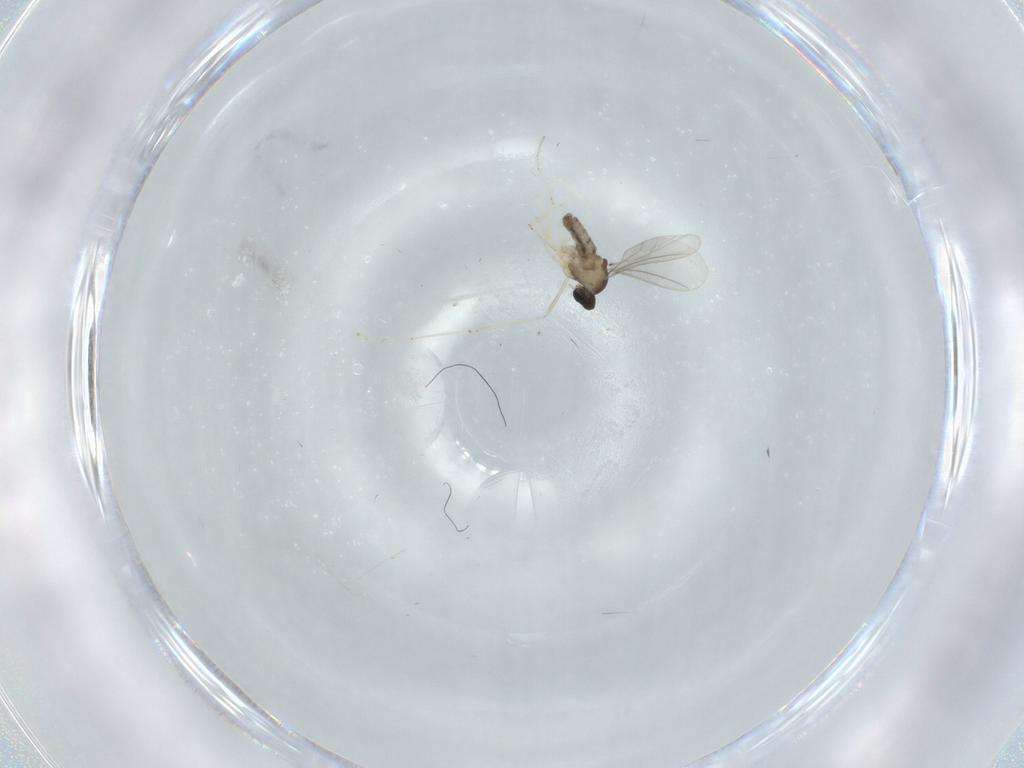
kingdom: Animalia
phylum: Arthropoda
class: Insecta
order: Diptera
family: Cecidomyiidae
